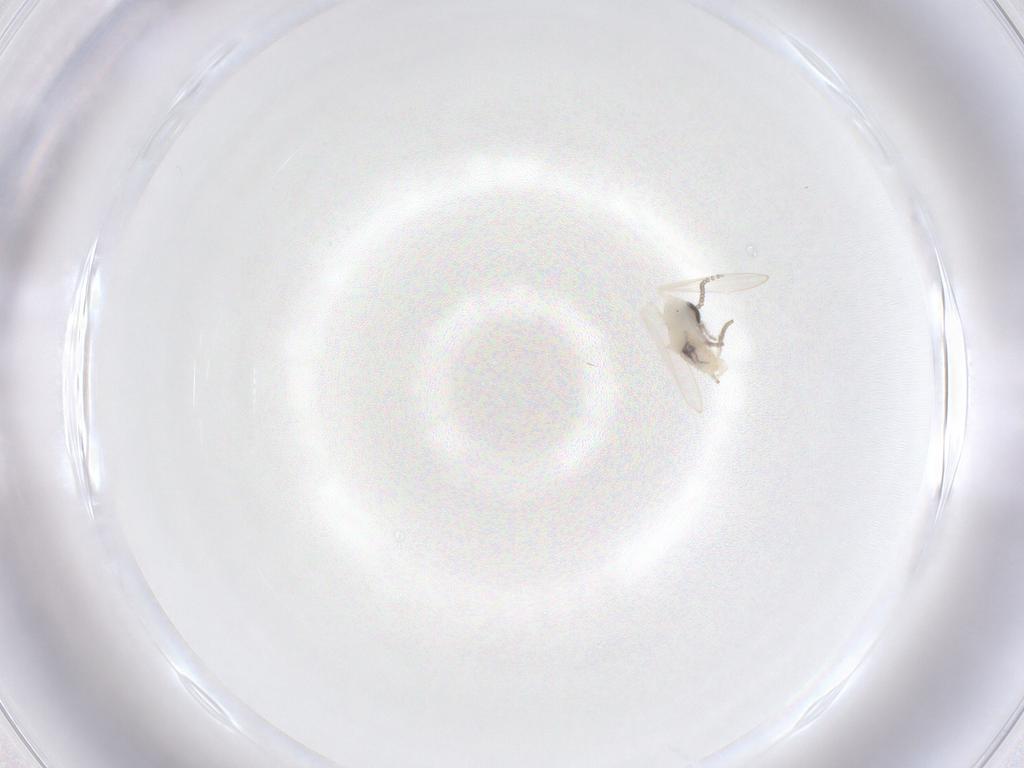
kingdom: Animalia
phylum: Arthropoda
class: Insecta
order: Diptera
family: Psychodidae
